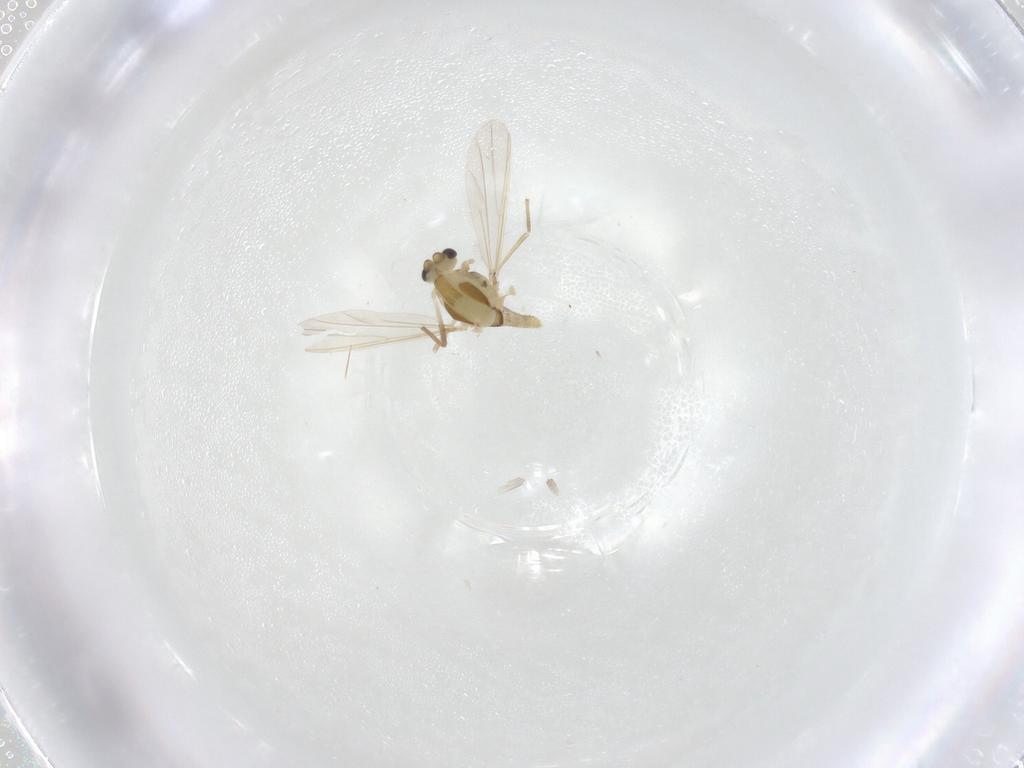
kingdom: Animalia
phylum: Arthropoda
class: Insecta
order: Diptera
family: Chironomidae
